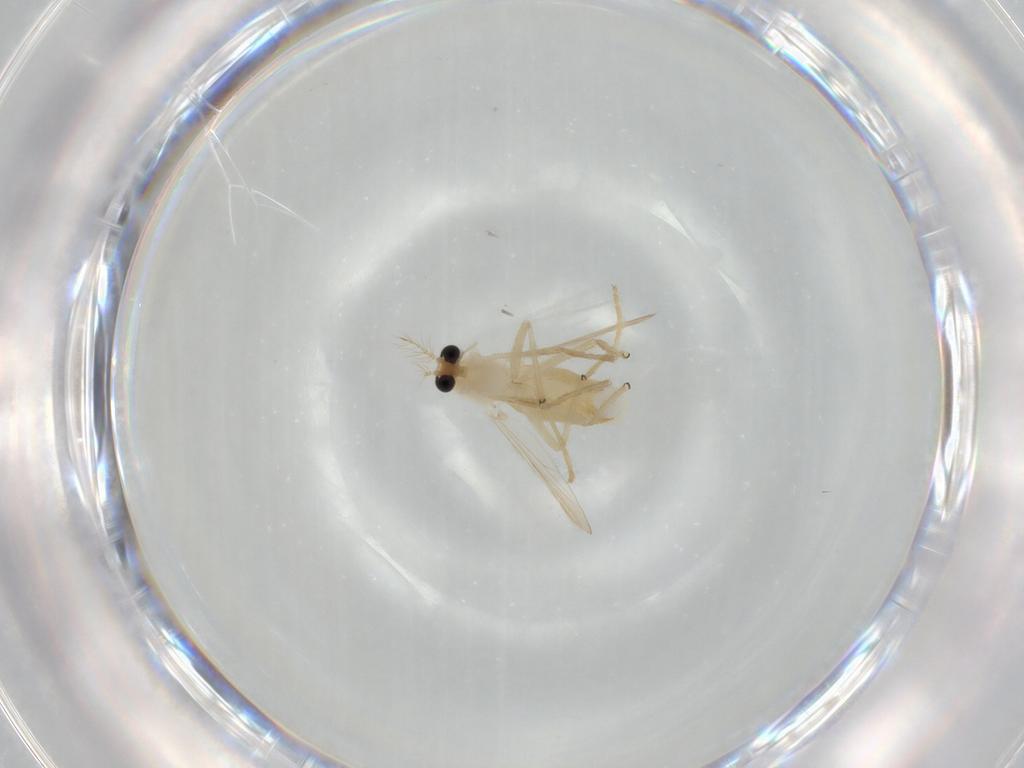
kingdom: Animalia
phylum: Arthropoda
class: Insecta
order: Diptera
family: Chironomidae
